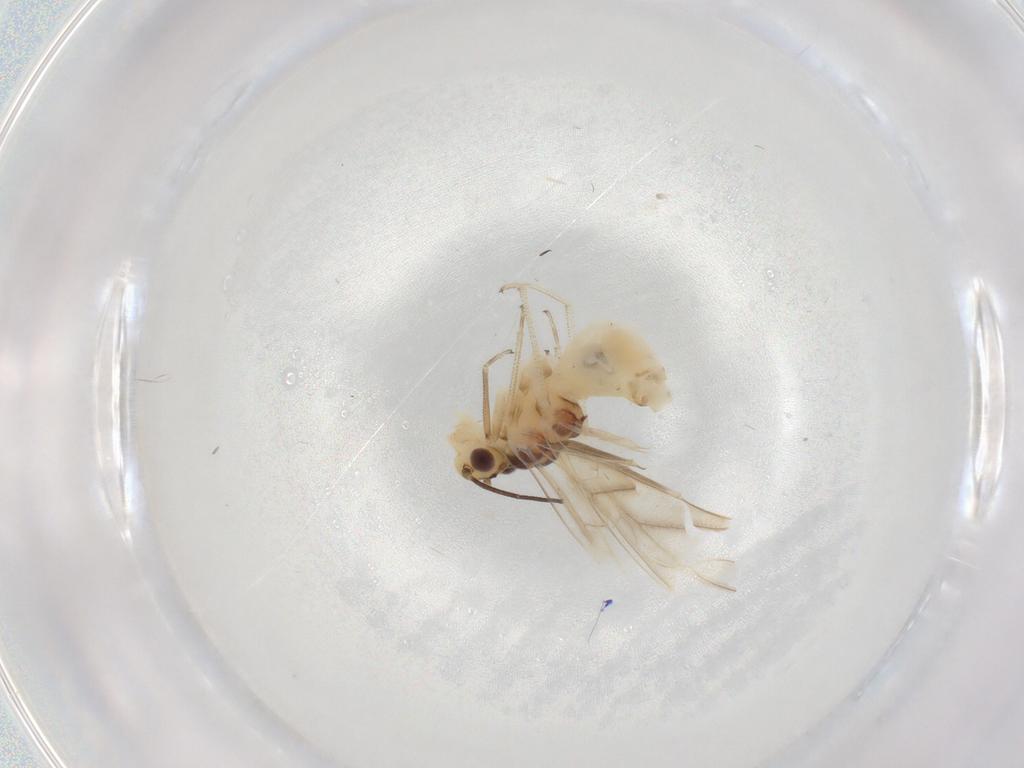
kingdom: Animalia
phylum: Arthropoda
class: Insecta
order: Psocodea
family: Caeciliusidae
